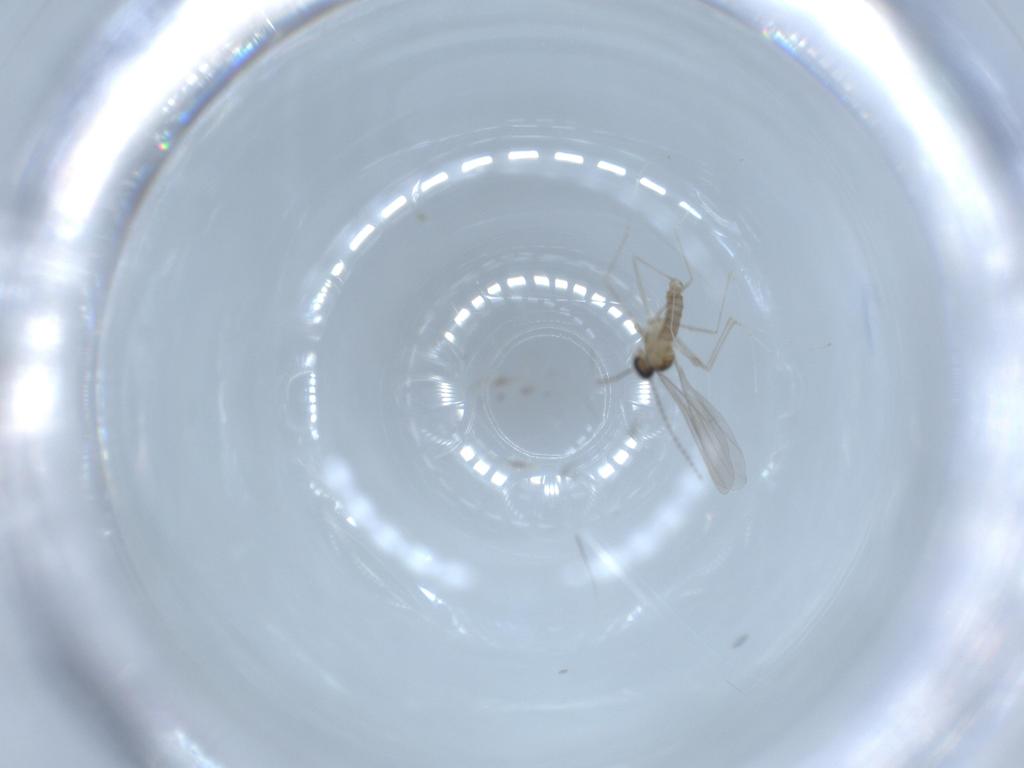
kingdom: Animalia
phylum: Arthropoda
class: Insecta
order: Diptera
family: Cecidomyiidae
